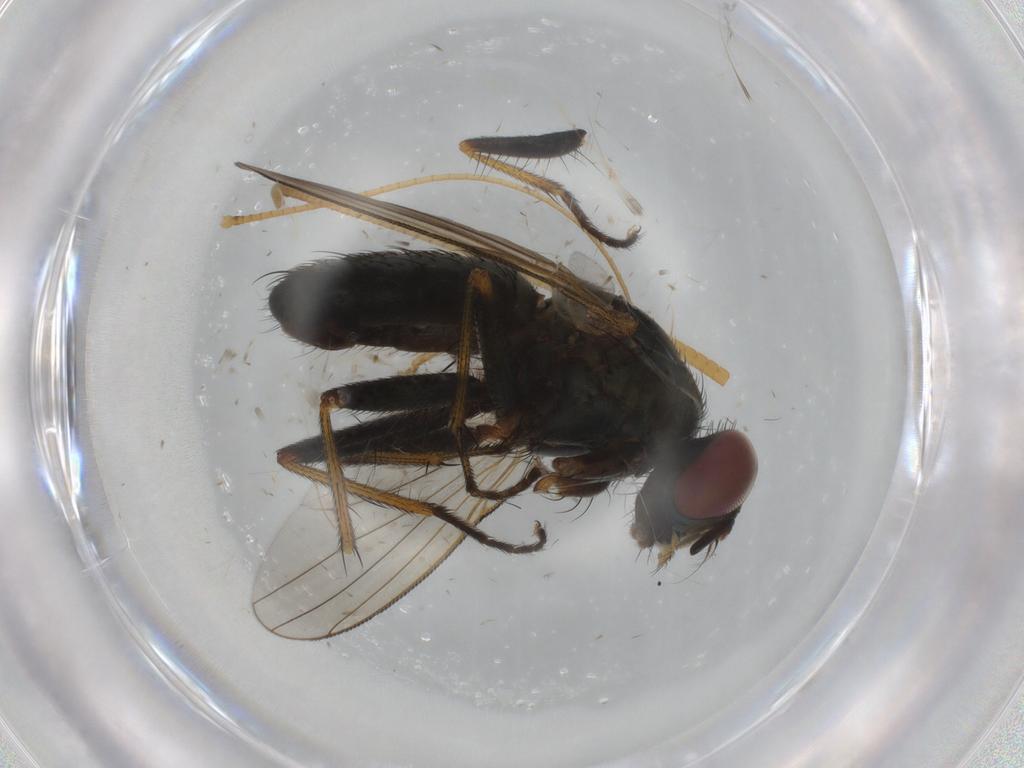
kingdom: Animalia
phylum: Arthropoda
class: Insecta
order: Diptera
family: Muscidae
